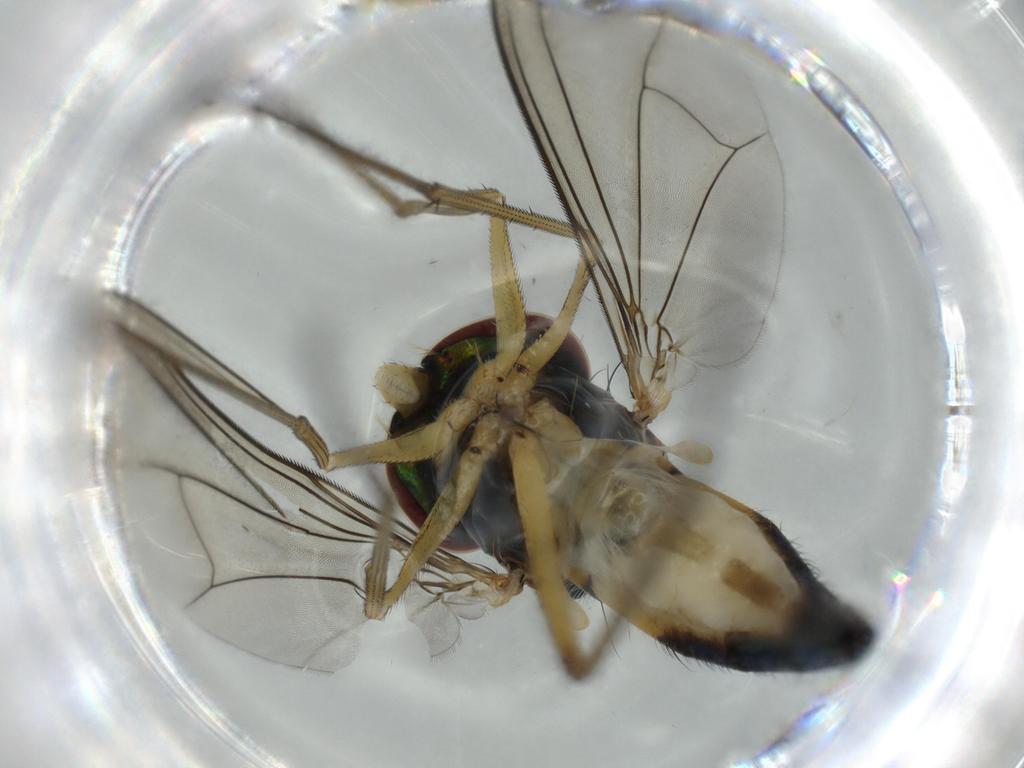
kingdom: Animalia
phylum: Arthropoda
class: Insecta
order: Diptera
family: Dolichopodidae
